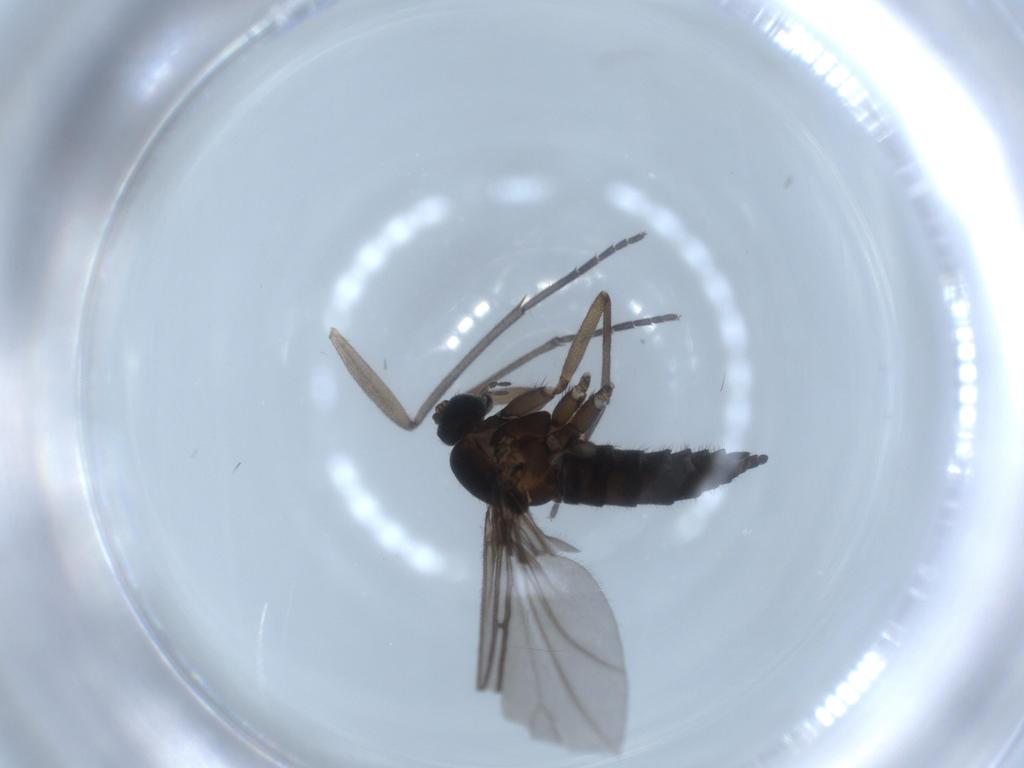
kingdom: Animalia
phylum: Arthropoda
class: Insecta
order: Diptera
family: Sciaridae
